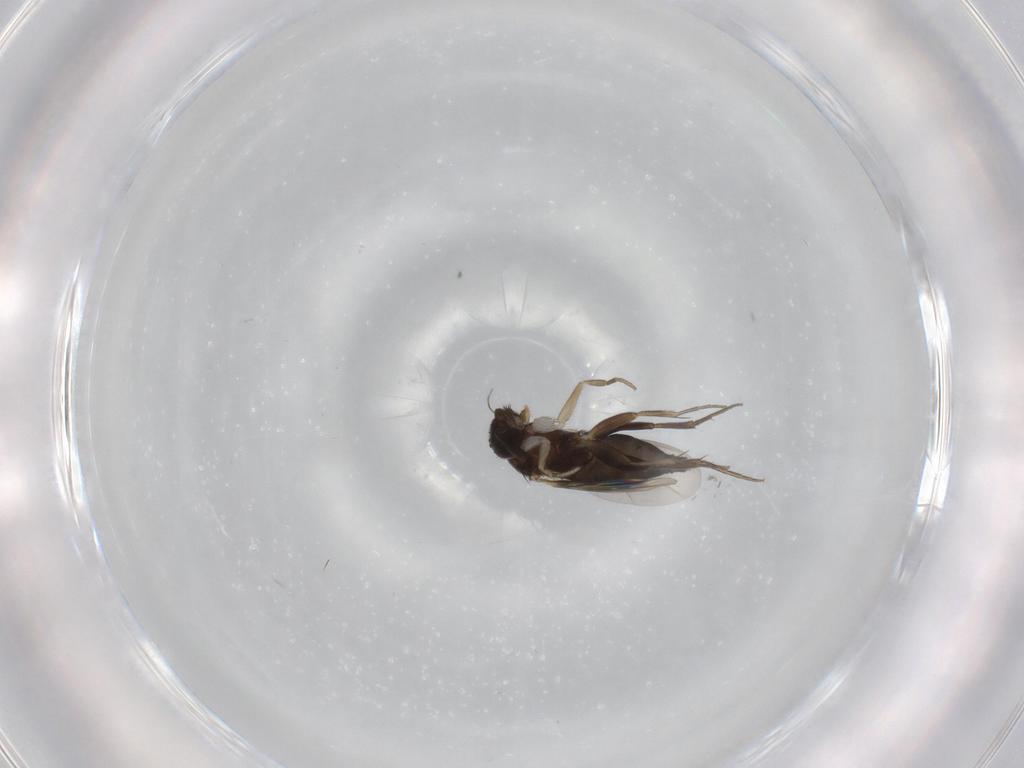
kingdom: Animalia
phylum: Arthropoda
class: Insecta
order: Diptera
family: Phoridae
